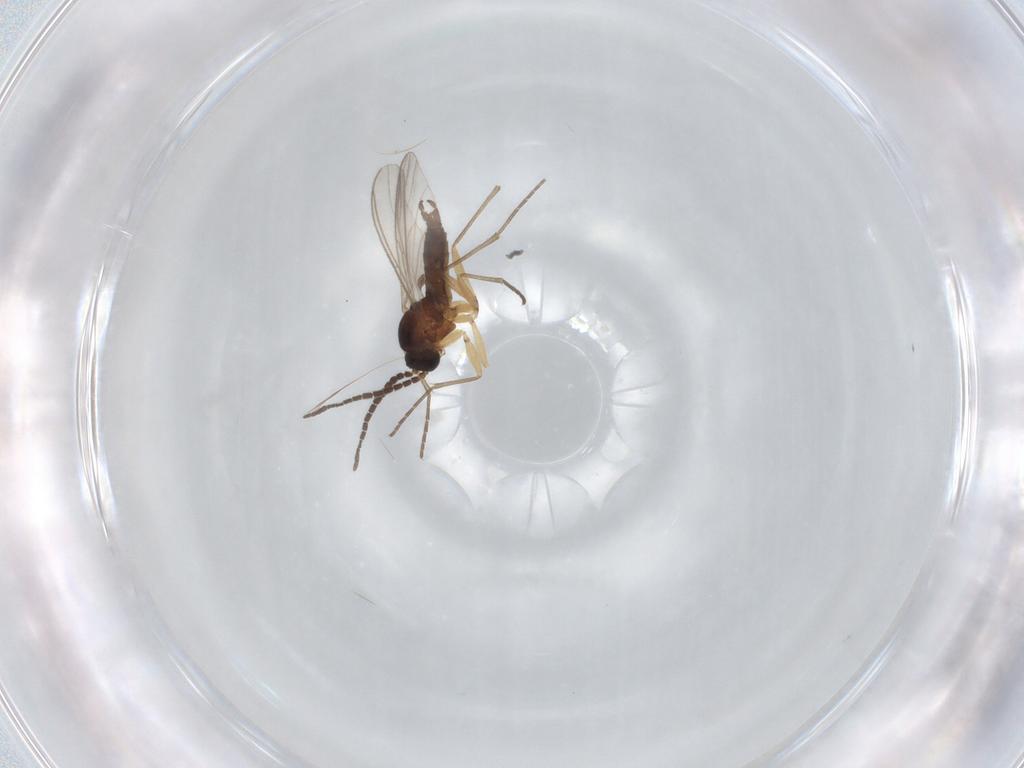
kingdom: Animalia
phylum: Arthropoda
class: Insecta
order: Diptera
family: Sciaridae
